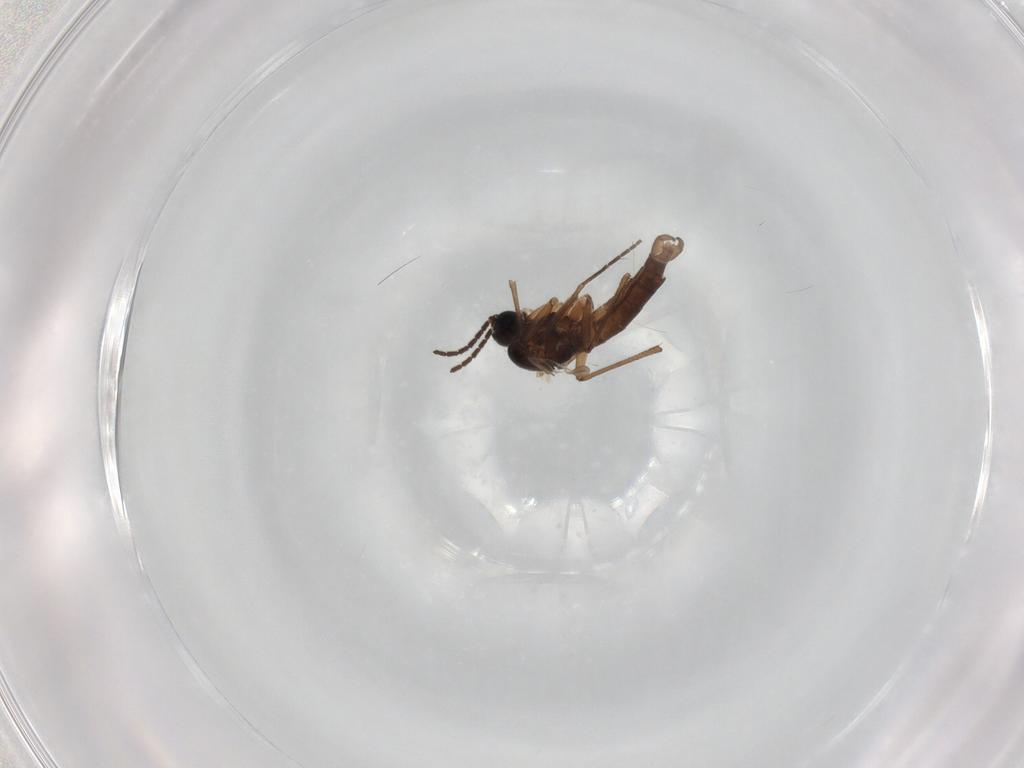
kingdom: Animalia
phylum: Arthropoda
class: Insecta
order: Diptera
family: Sciaridae
